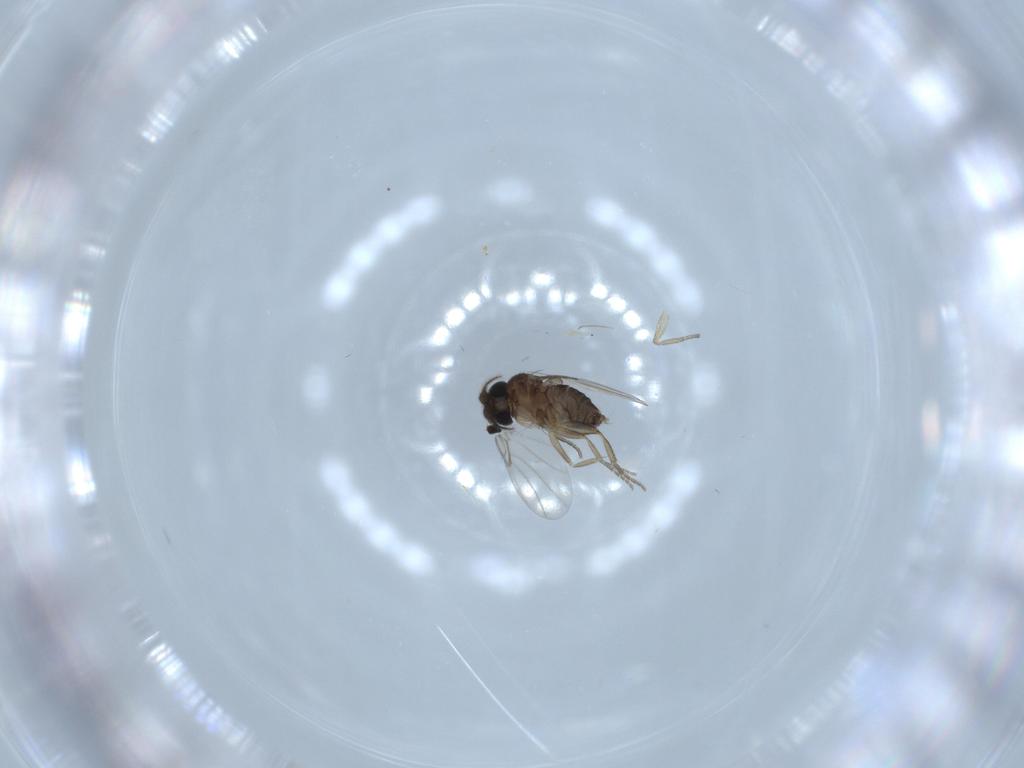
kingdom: Animalia
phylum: Arthropoda
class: Insecta
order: Diptera
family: Phoridae
